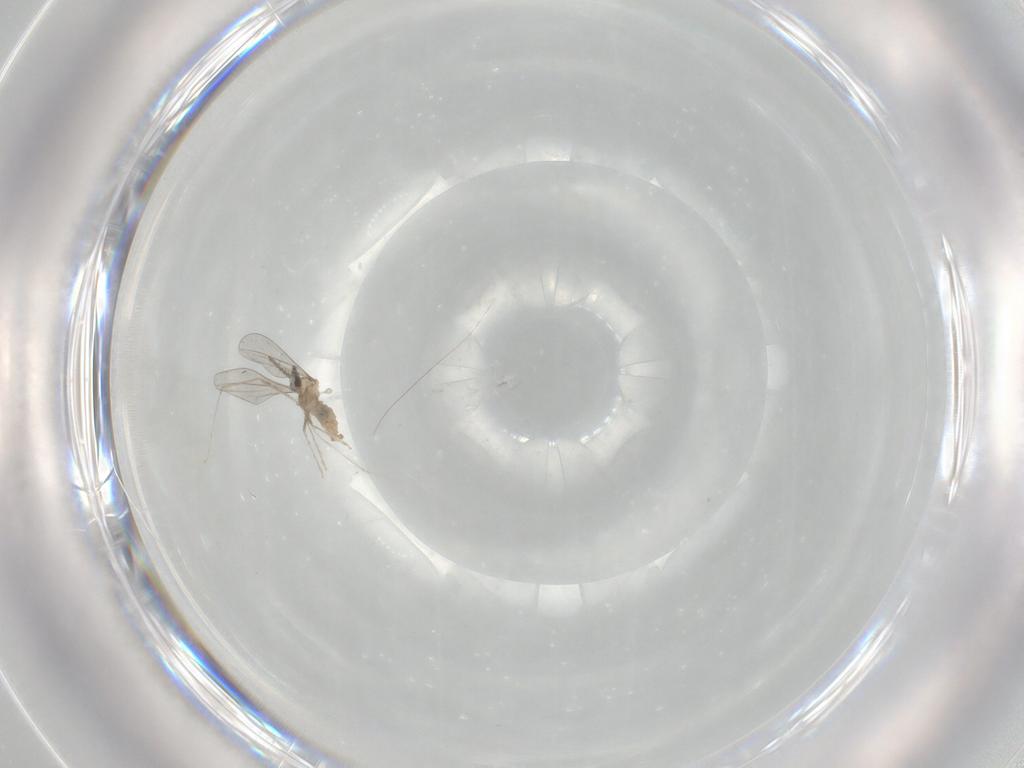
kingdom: Animalia
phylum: Arthropoda
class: Insecta
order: Diptera
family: Cecidomyiidae
